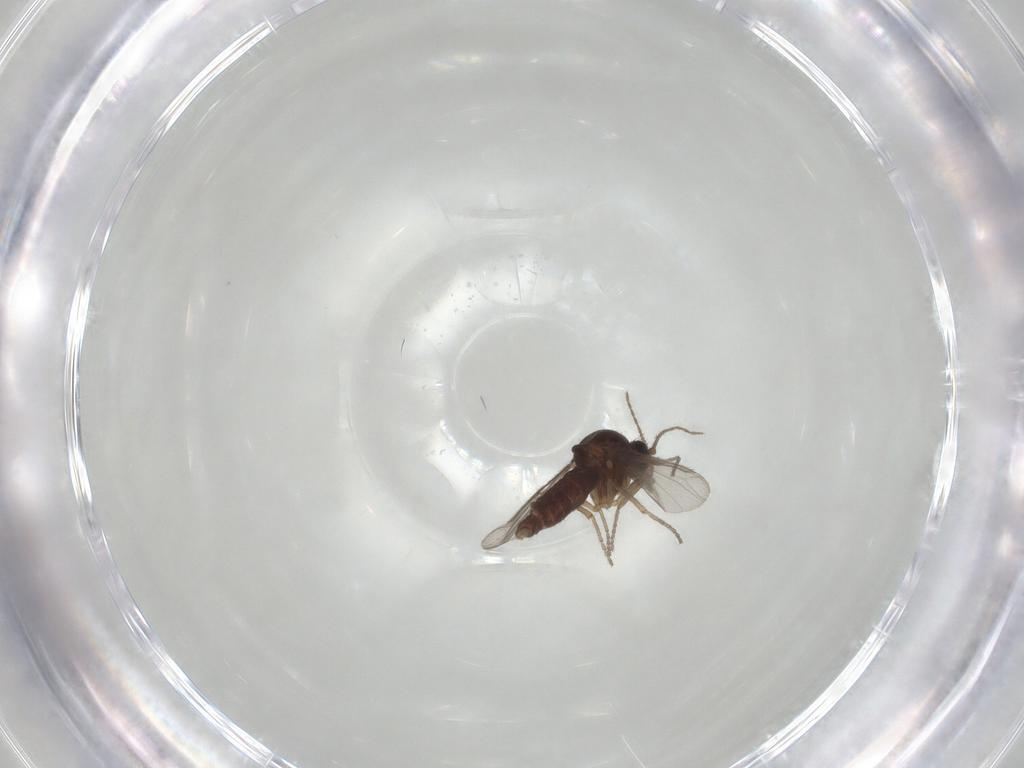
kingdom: Animalia
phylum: Arthropoda
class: Insecta
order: Diptera
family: Ceratopogonidae
